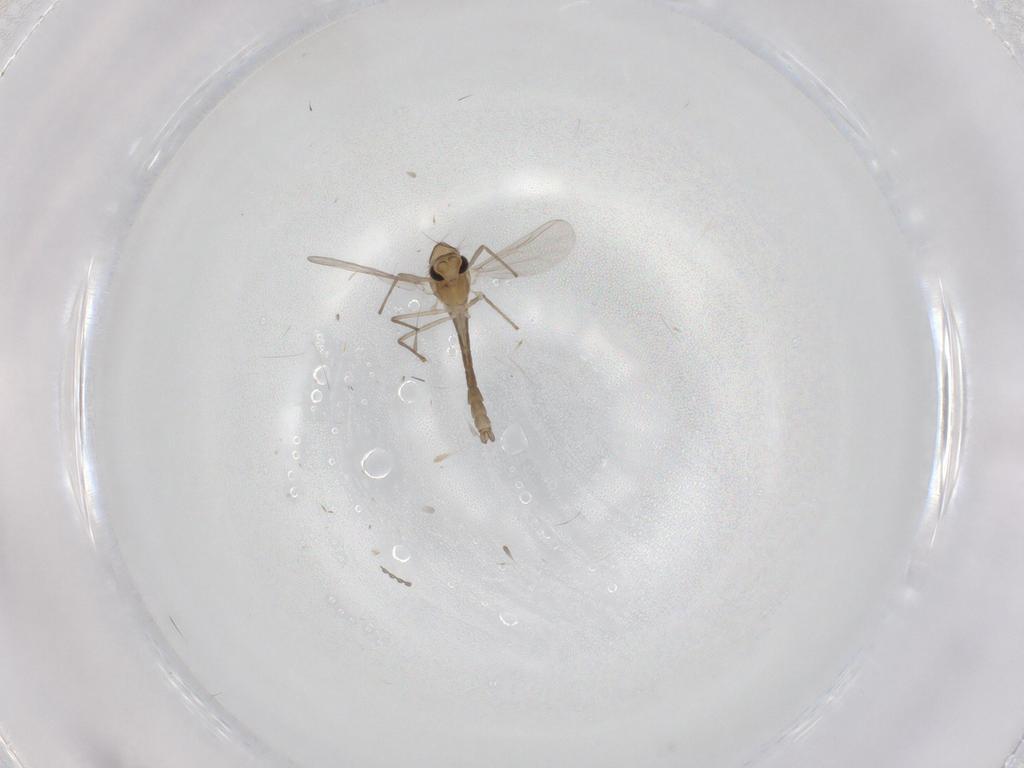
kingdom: Animalia
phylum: Arthropoda
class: Insecta
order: Diptera
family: Chironomidae
